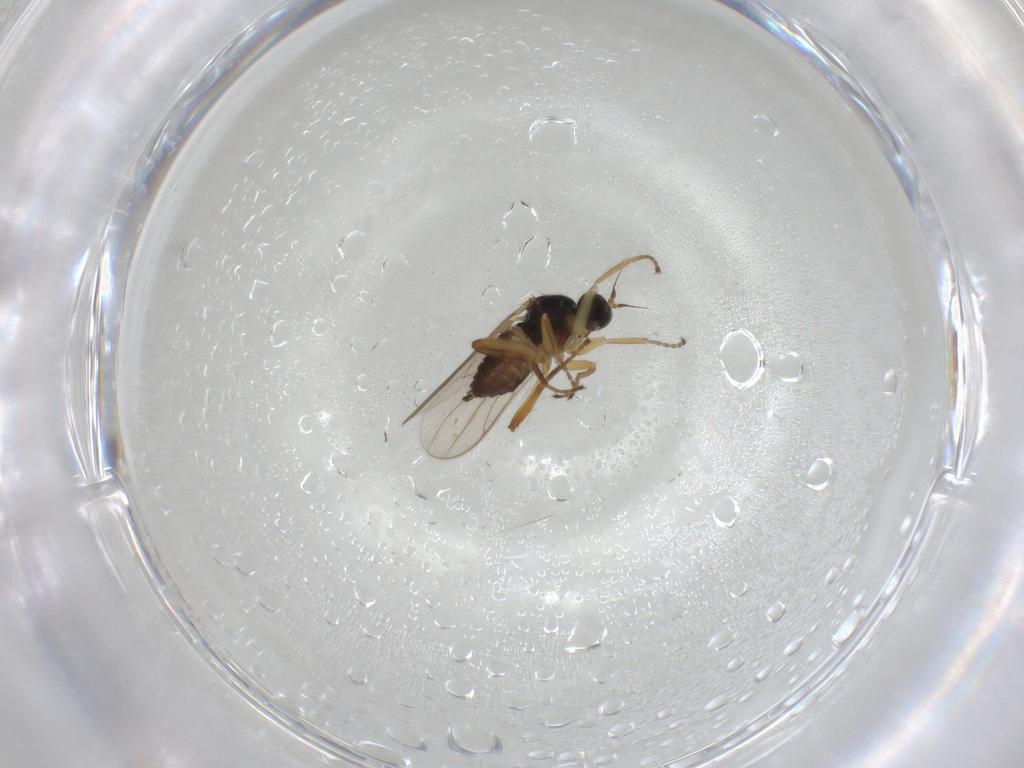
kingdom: Animalia
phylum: Arthropoda
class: Insecta
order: Diptera
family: Hybotidae
